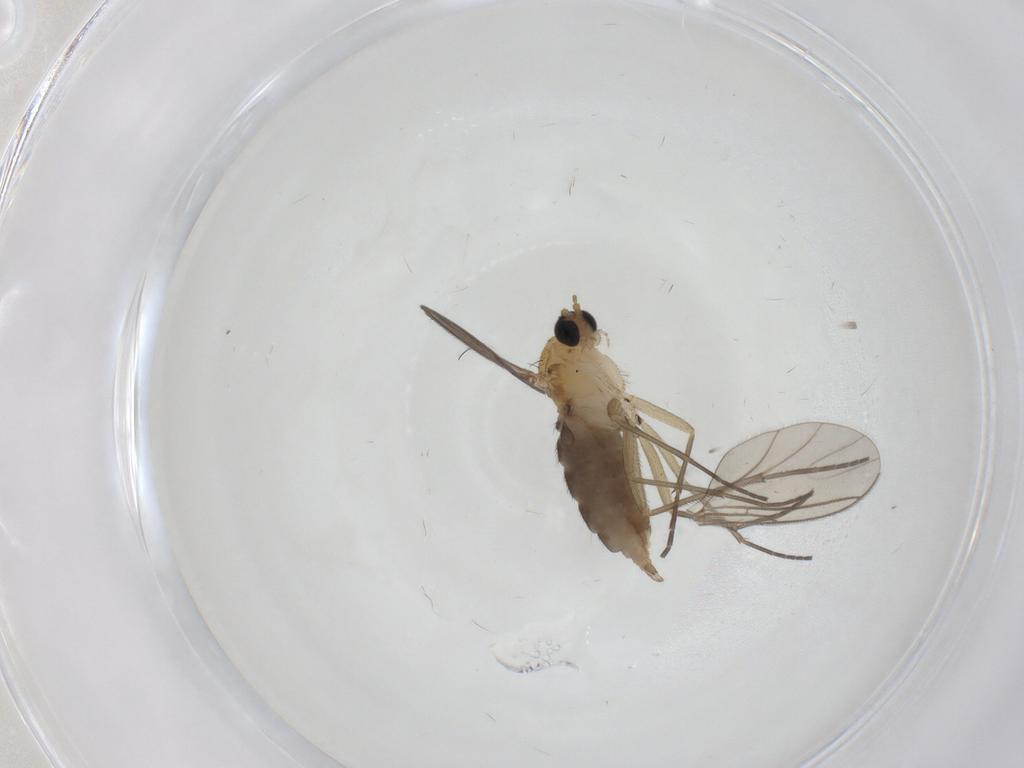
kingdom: Animalia
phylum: Arthropoda
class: Insecta
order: Diptera
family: Limoniidae
